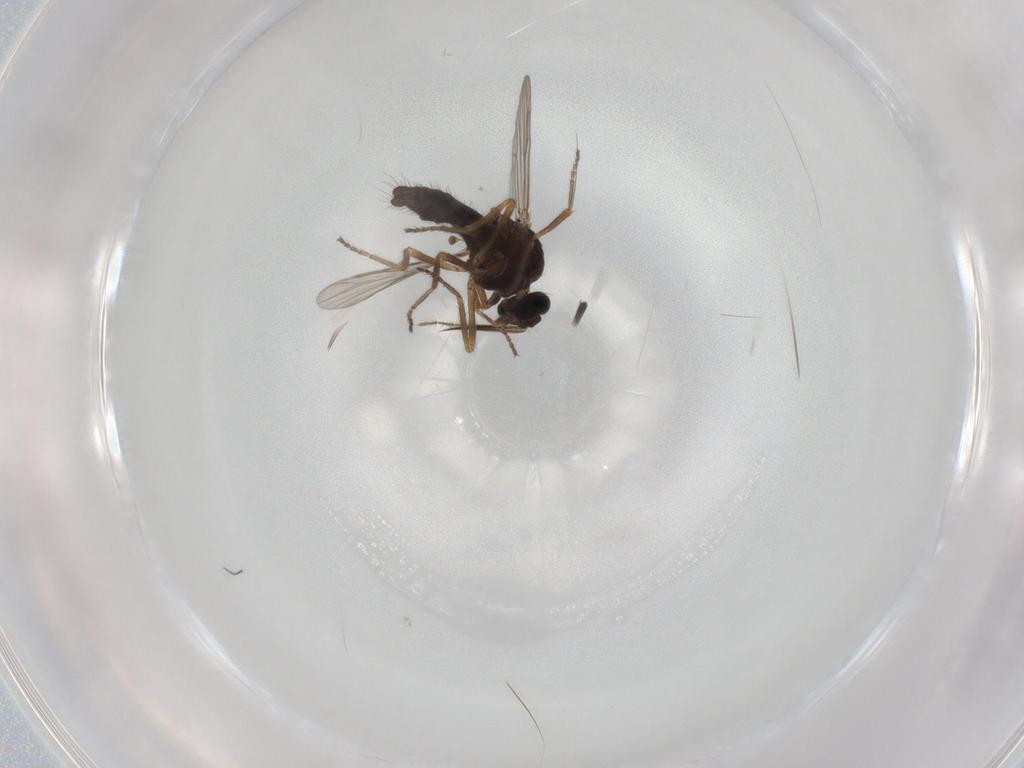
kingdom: Animalia
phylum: Arthropoda
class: Insecta
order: Diptera
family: Ceratopogonidae
